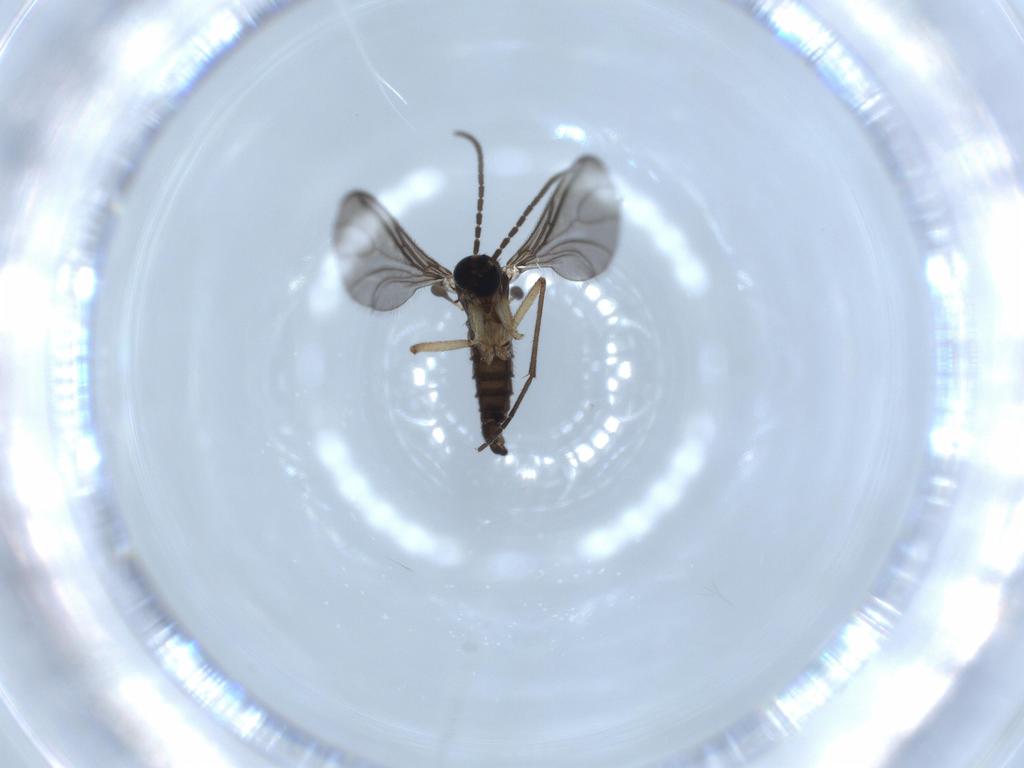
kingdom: Animalia
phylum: Arthropoda
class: Insecta
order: Diptera
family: Sciaridae
